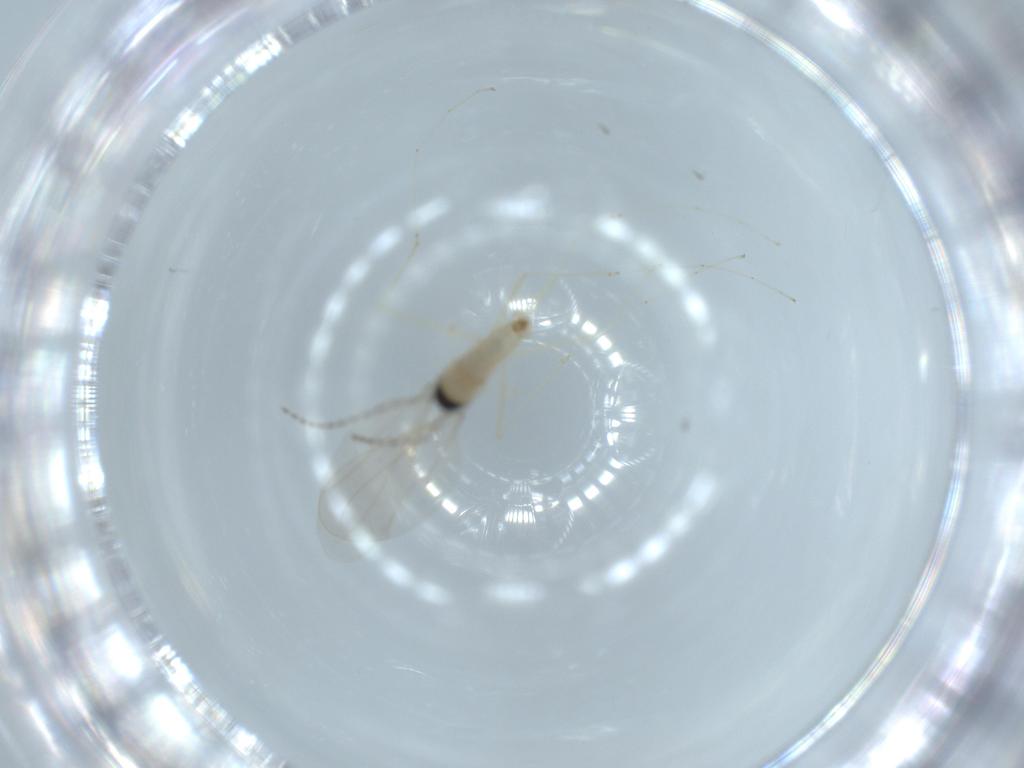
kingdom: Animalia
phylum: Arthropoda
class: Insecta
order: Diptera
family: Cecidomyiidae
